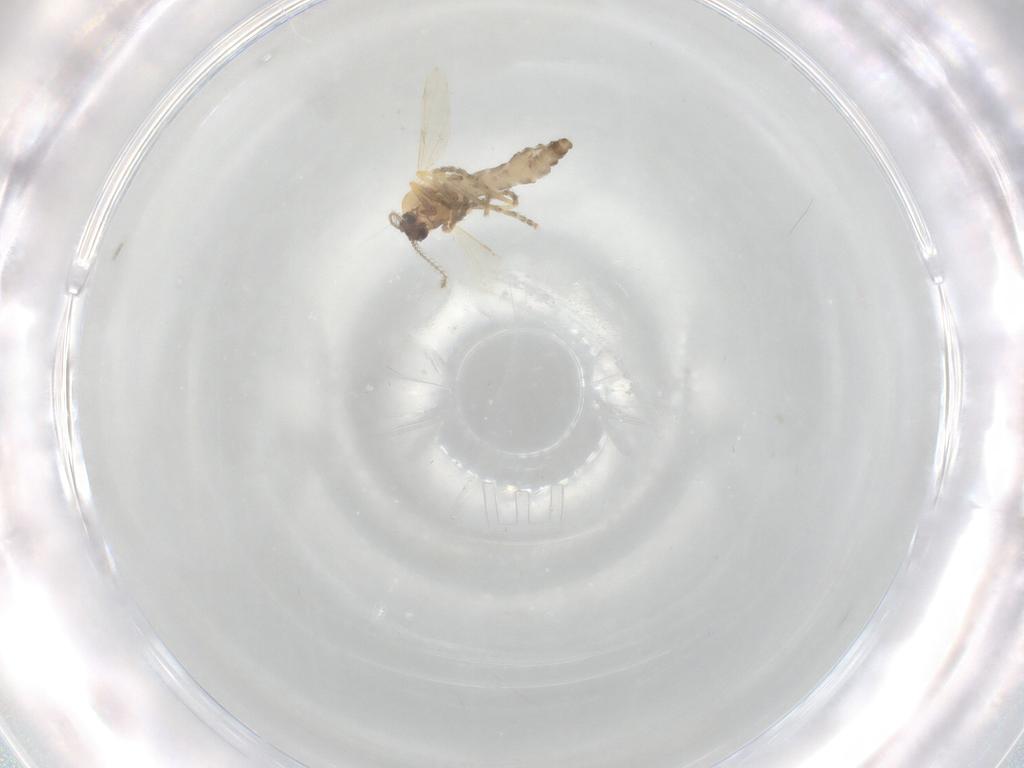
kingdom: Animalia
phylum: Arthropoda
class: Insecta
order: Diptera
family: Ceratopogonidae
